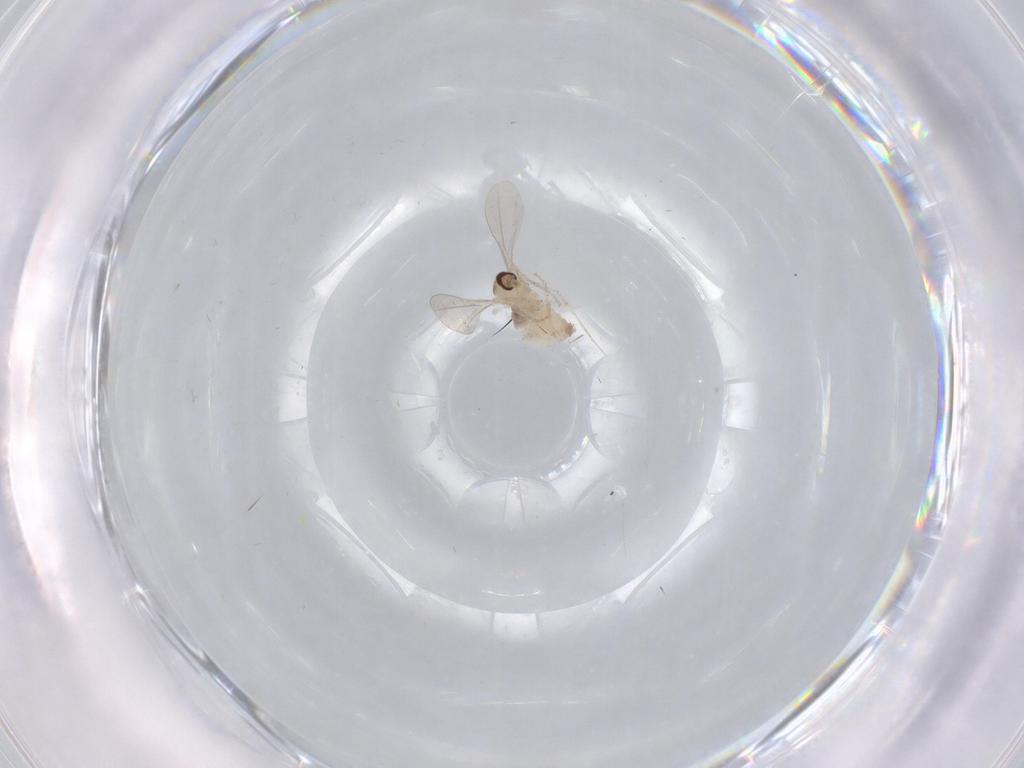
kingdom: Animalia
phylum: Arthropoda
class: Insecta
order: Diptera
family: Cecidomyiidae
